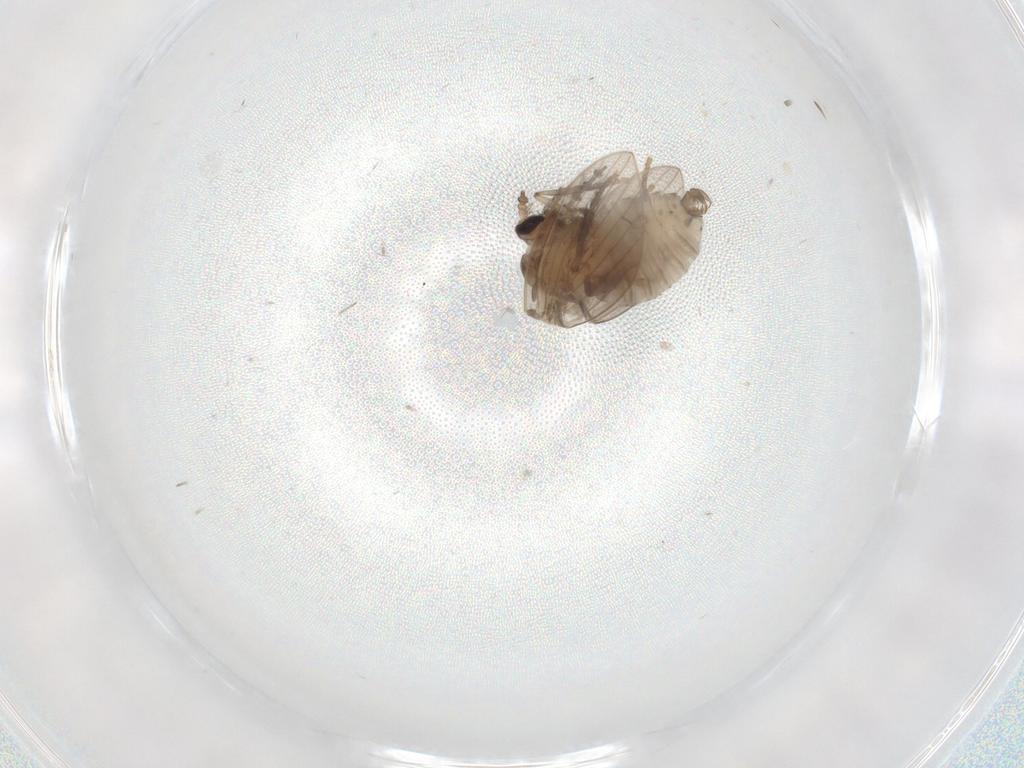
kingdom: Animalia
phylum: Arthropoda
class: Insecta
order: Diptera
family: Psychodidae
